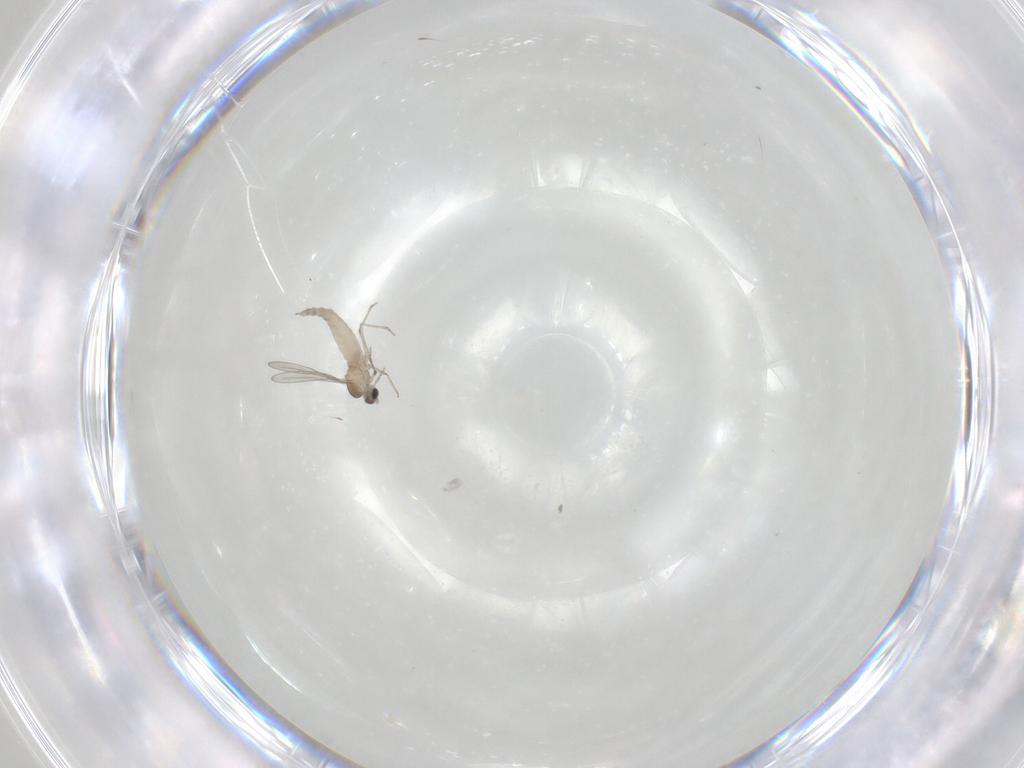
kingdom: Animalia
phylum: Arthropoda
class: Insecta
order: Diptera
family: Cecidomyiidae
